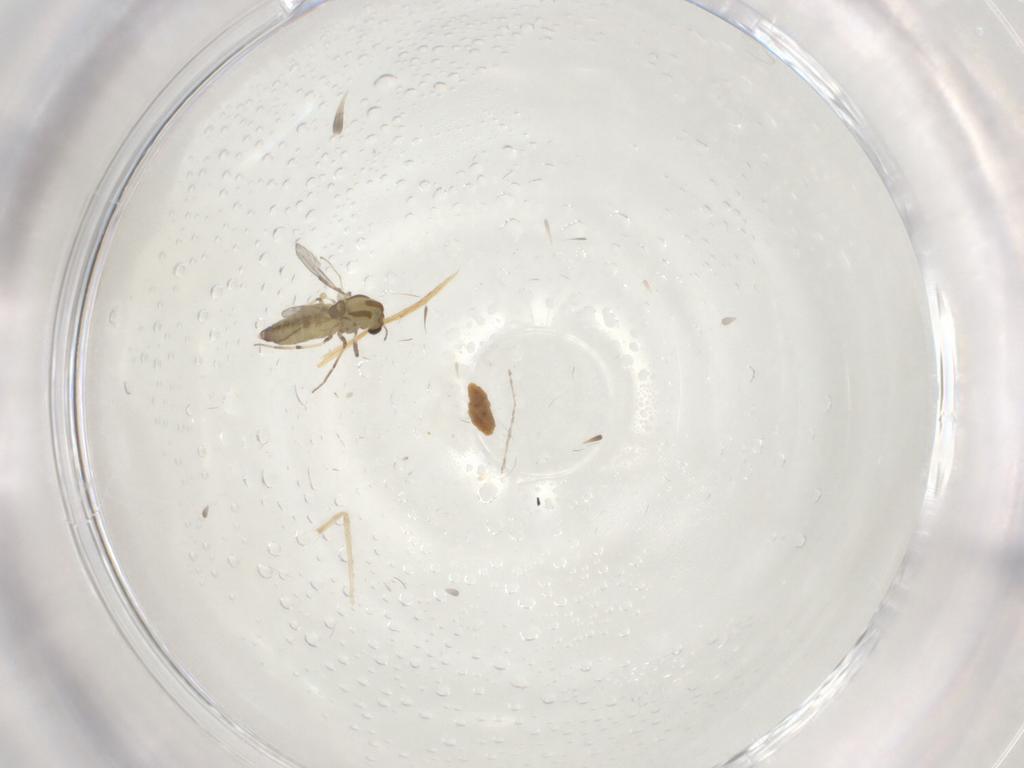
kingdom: Animalia
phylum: Arthropoda
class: Insecta
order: Diptera
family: Cecidomyiidae
